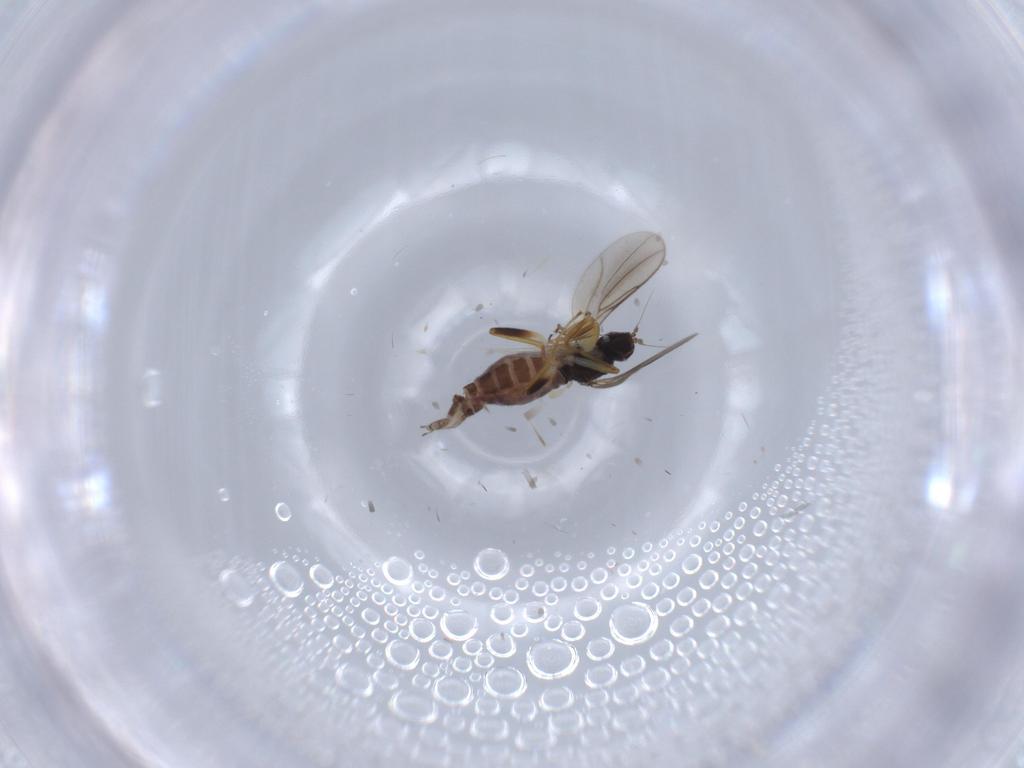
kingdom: Animalia
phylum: Arthropoda
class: Insecta
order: Diptera
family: Hybotidae
